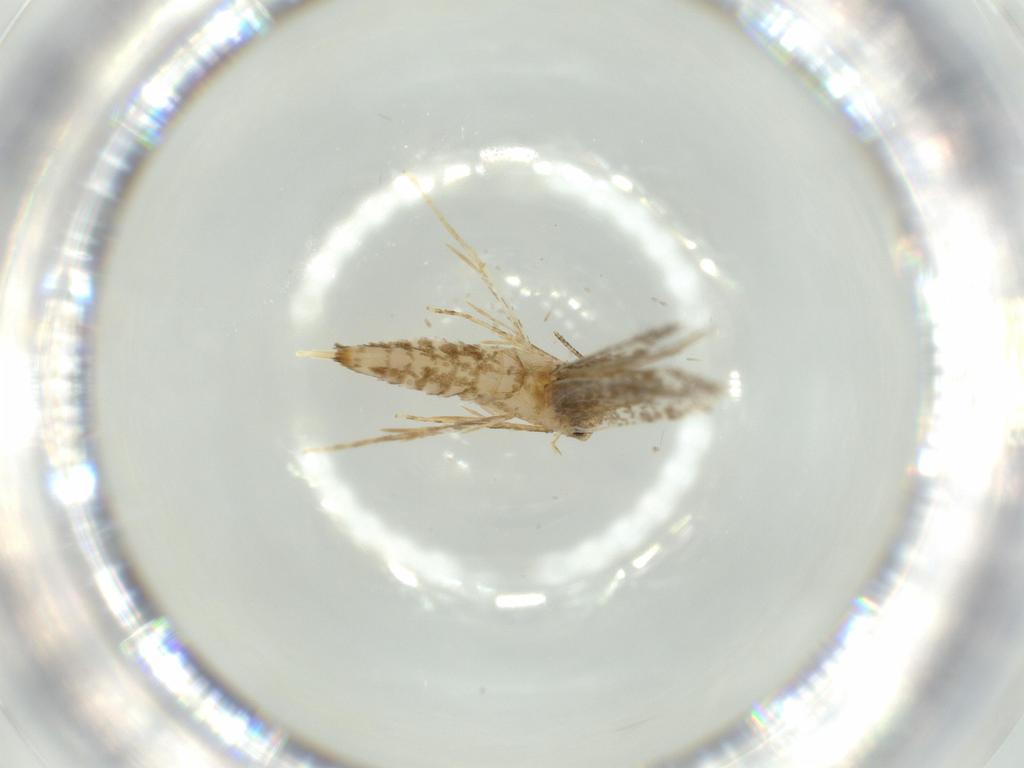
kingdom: Animalia
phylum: Arthropoda
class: Insecta
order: Lepidoptera
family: Tineidae
